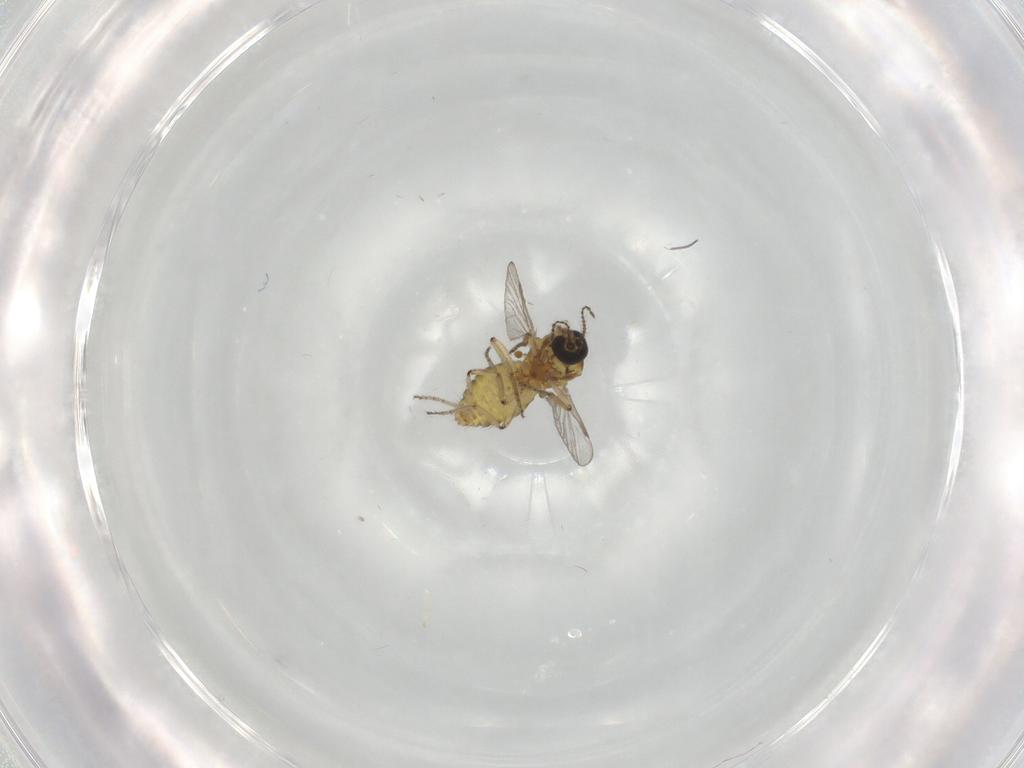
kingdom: Animalia
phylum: Arthropoda
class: Insecta
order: Diptera
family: Ceratopogonidae
